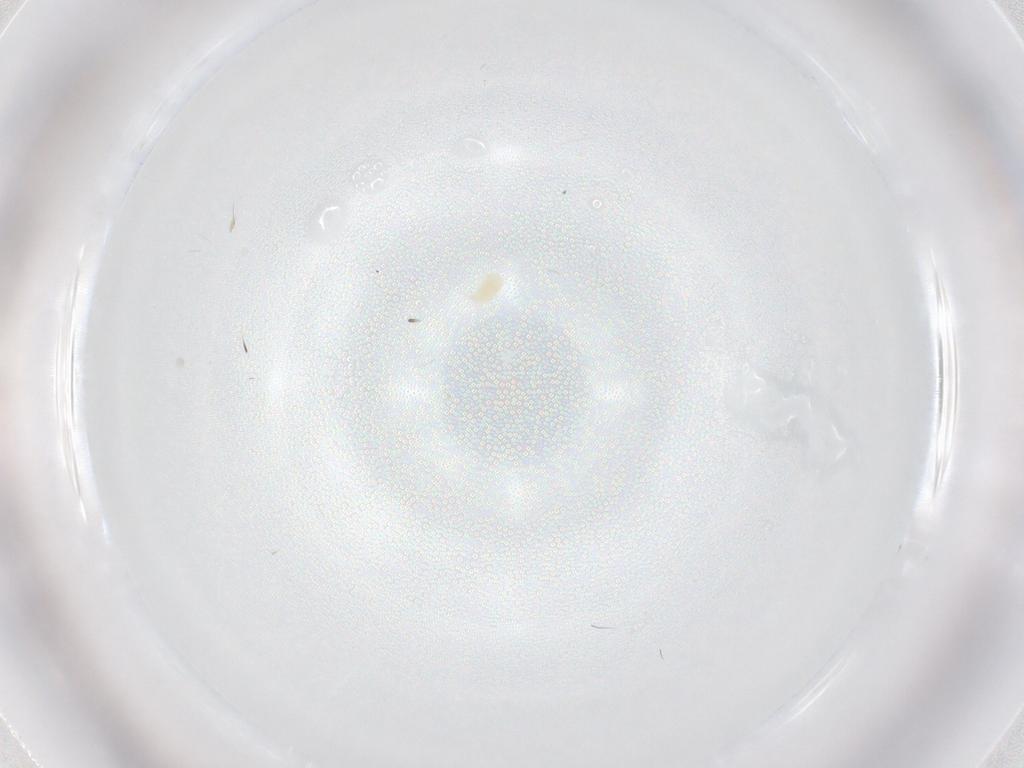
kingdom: Animalia
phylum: Arthropoda
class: Arachnida
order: Trombidiformes
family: Tetranychidae
